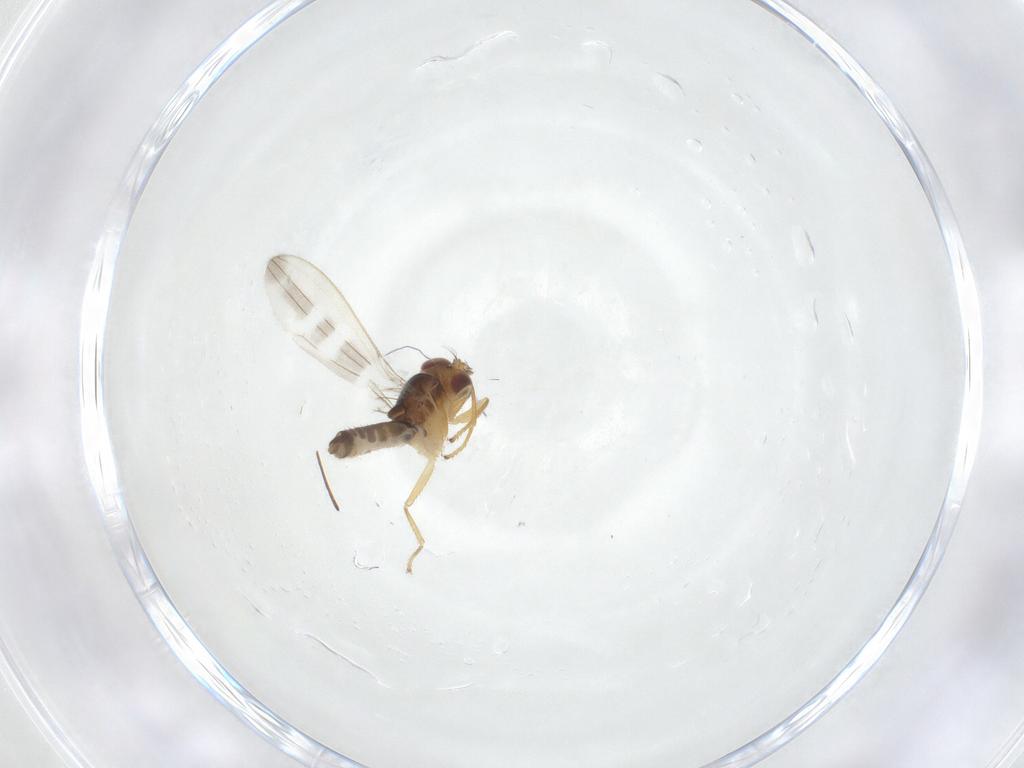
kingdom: Animalia
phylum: Arthropoda
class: Insecta
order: Diptera
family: Periscelididae
